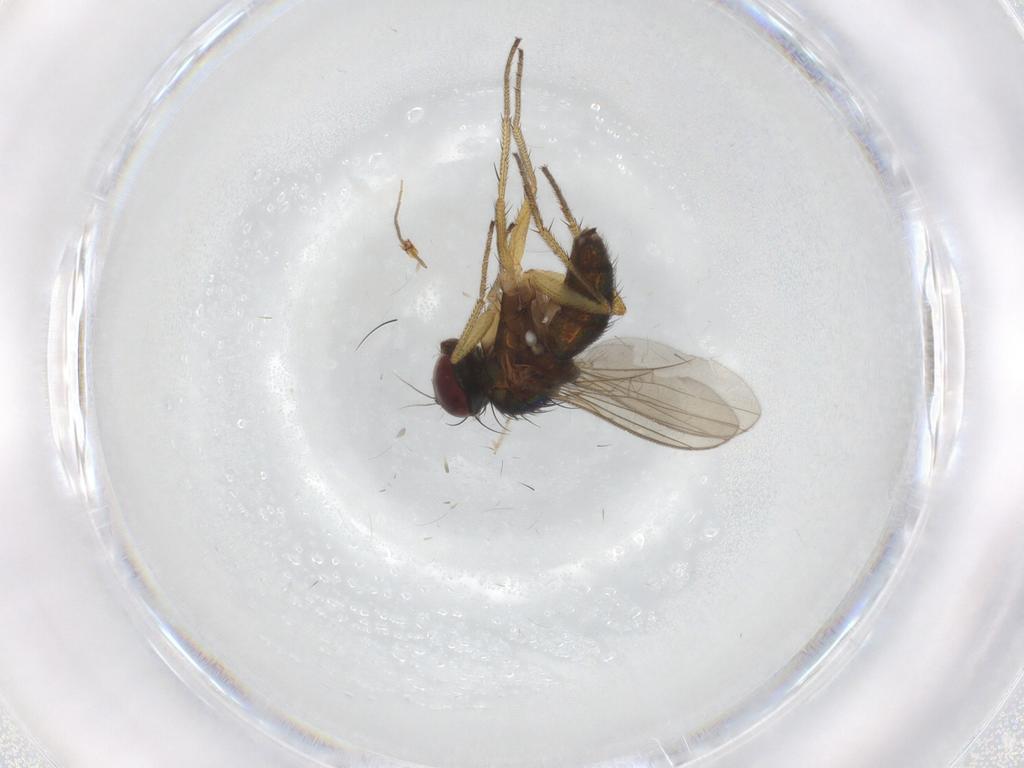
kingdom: Animalia
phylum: Arthropoda
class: Insecta
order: Diptera
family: Chironomidae
